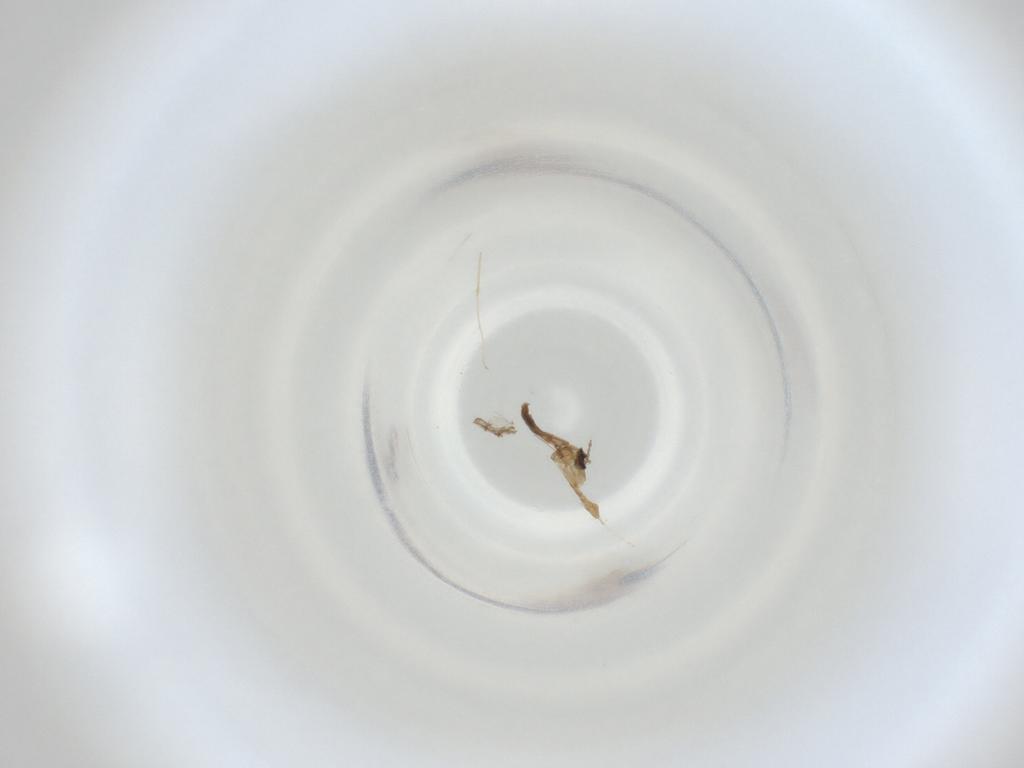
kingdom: Animalia
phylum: Arthropoda
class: Insecta
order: Diptera
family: Cecidomyiidae
